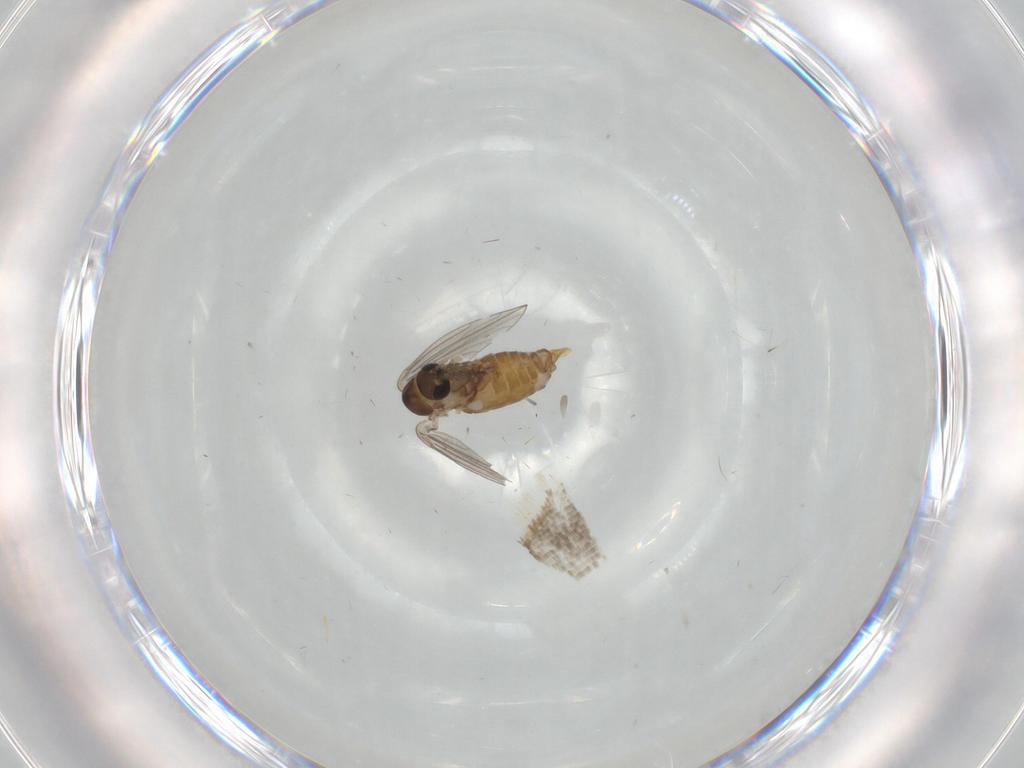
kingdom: Animalia
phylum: Arthropoda
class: Insecta
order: Diptera
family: Psychodidae
